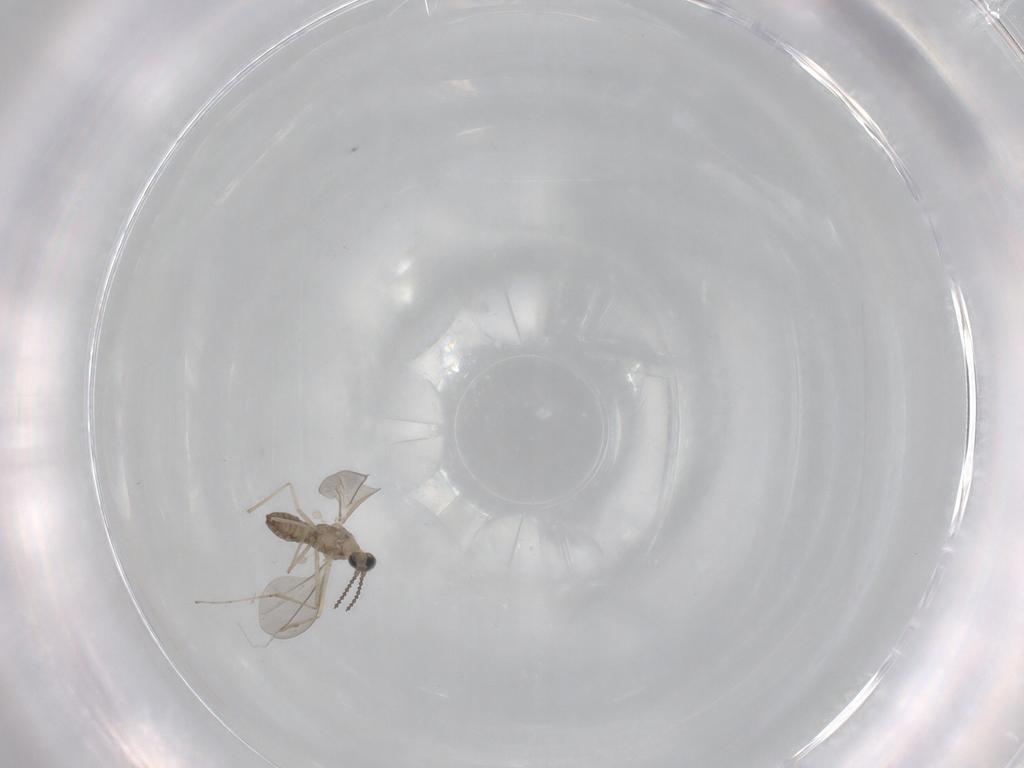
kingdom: Animalia
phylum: Arthropoda
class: Insecta
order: Diptera
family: Cecidomyiidae
